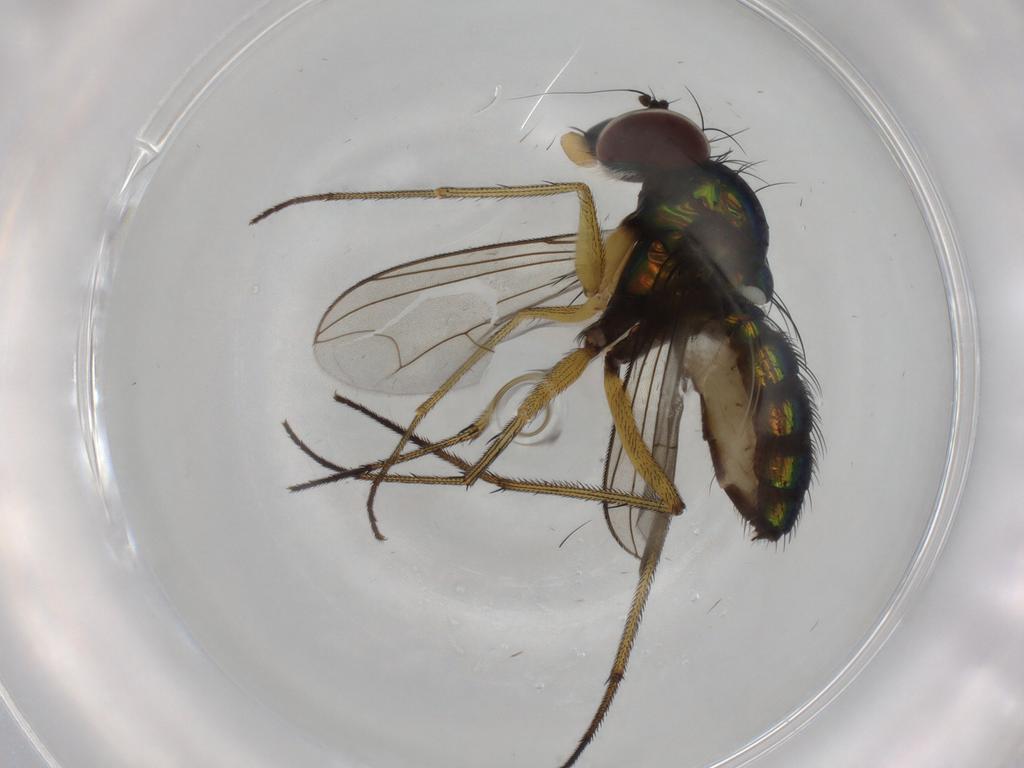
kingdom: Animalia
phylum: Arthropoda
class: Insecta
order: Diptera
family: Dolichopodidae
